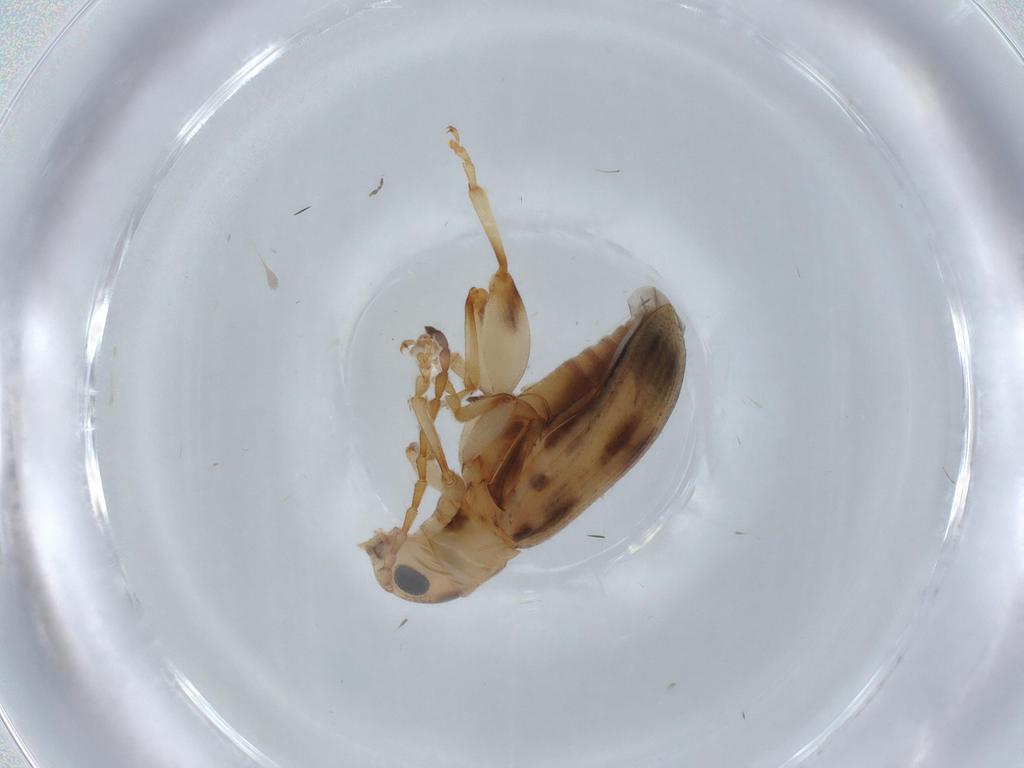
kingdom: Animalia
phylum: Arthropoda
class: Insecta
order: Coleoptera
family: Chrysomelidae
